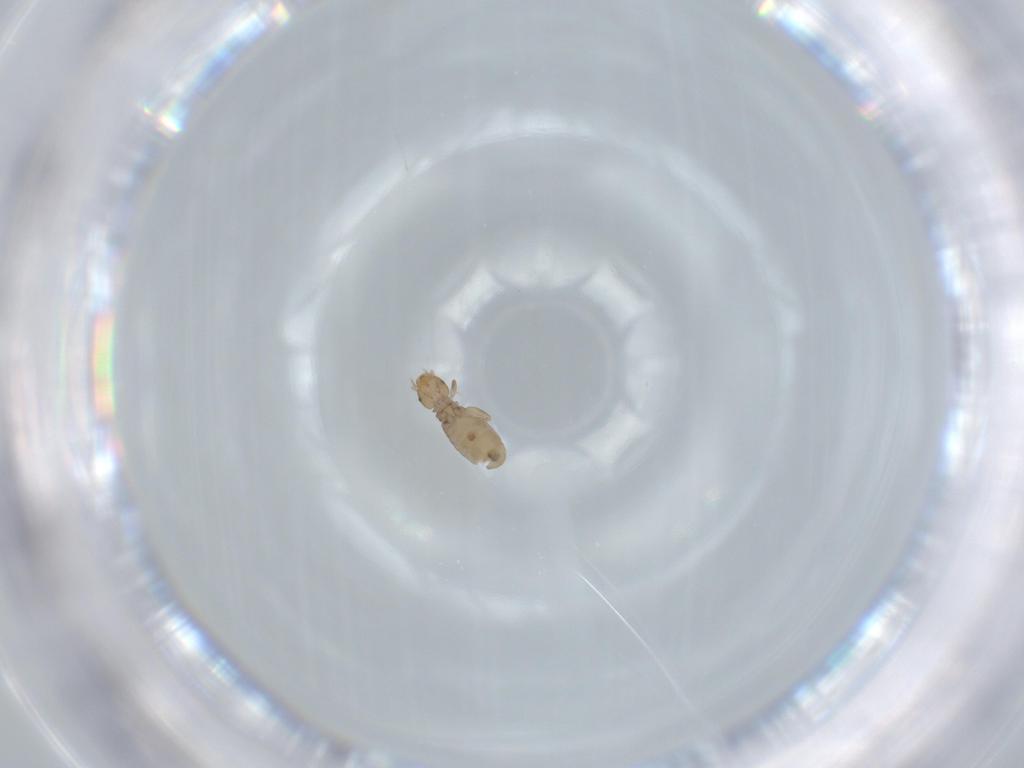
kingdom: Animalia
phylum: Arthropoda
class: Insecta
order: Psocodea
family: Liposcelididae
